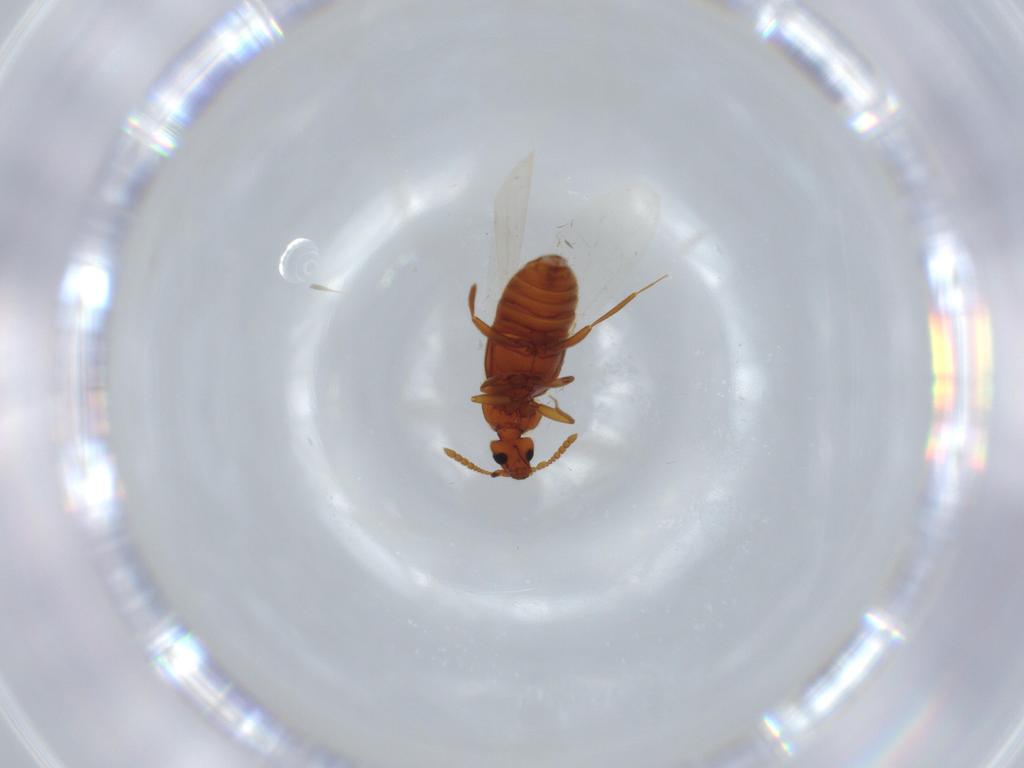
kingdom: Animalia
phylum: Arthropoda
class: Insecta
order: Coleoptera
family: Staphylinidae
